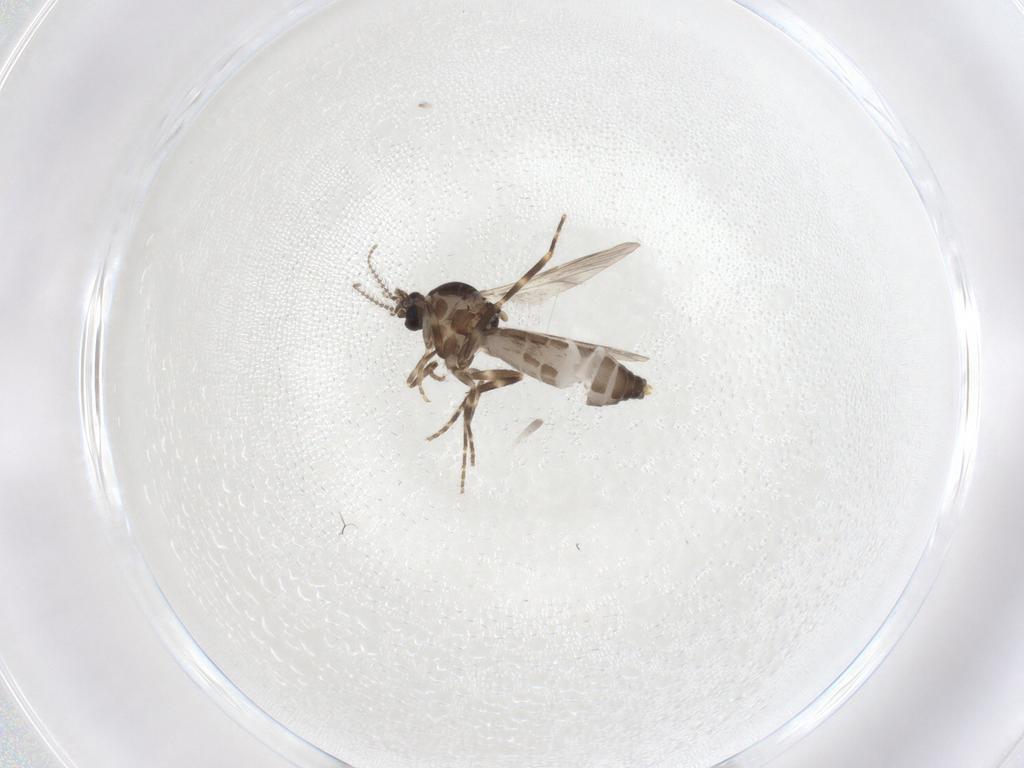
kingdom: Animalia
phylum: Arthropoda
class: Insecta
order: Diptera
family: Ceratopogonidae
